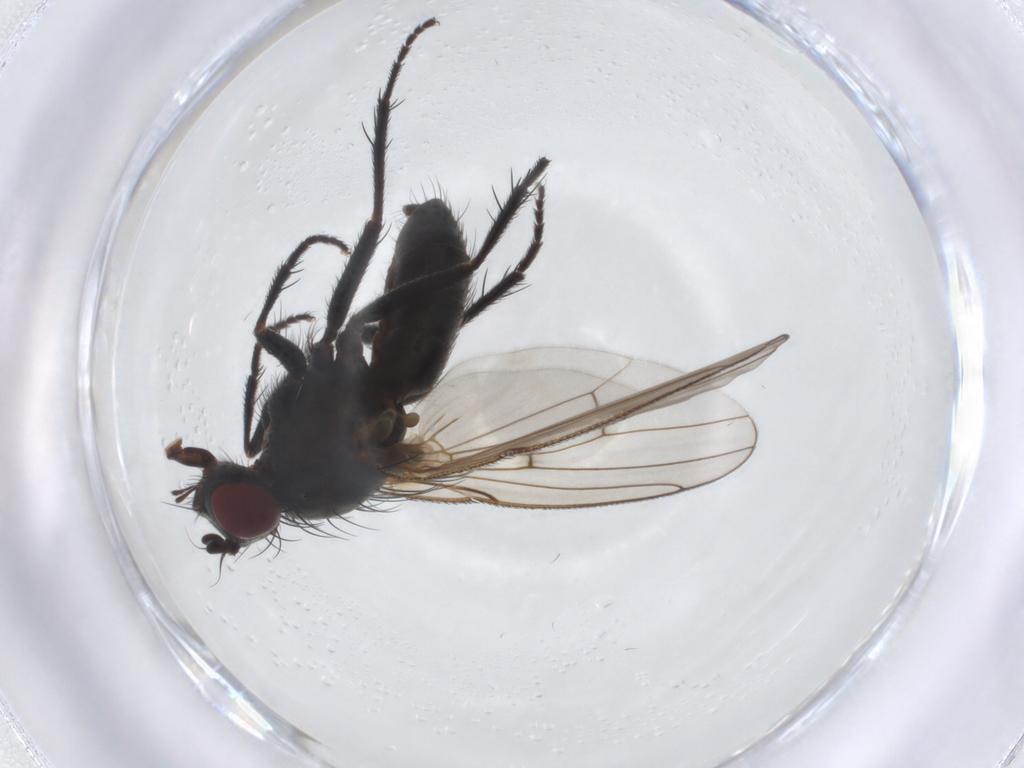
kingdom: Animalia
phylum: Arthropoda
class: Insecta
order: Diptera
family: Muscidae
